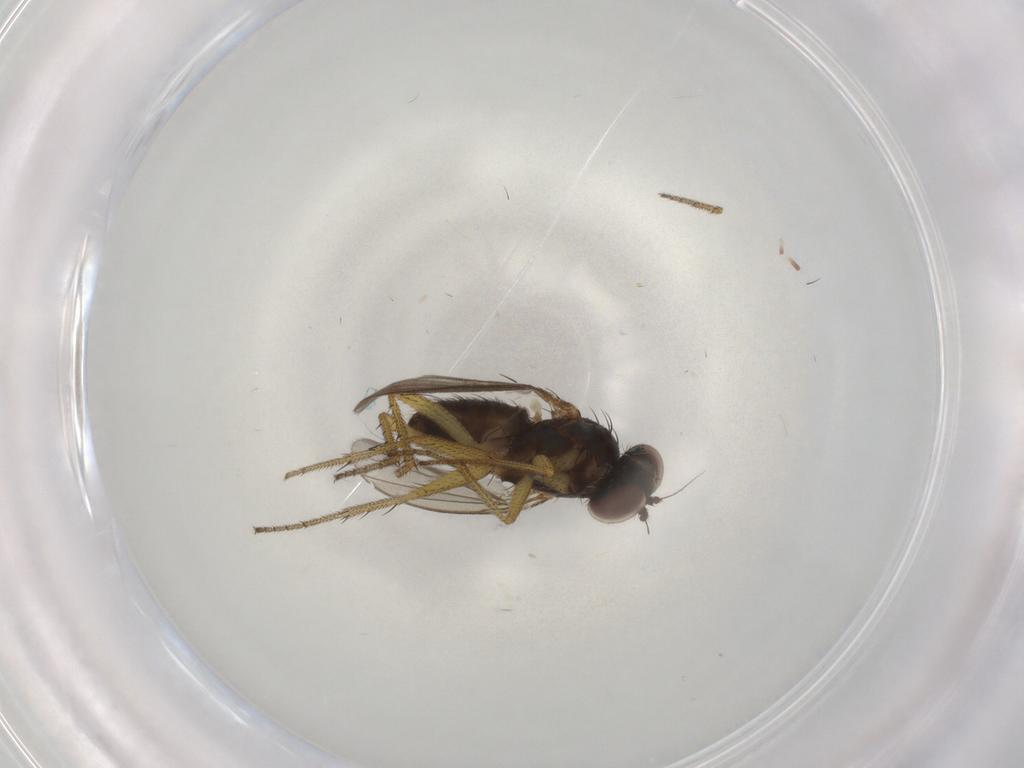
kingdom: Animalia
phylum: Arthropoda
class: Insecta
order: Diptera
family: Dolichopodidae
